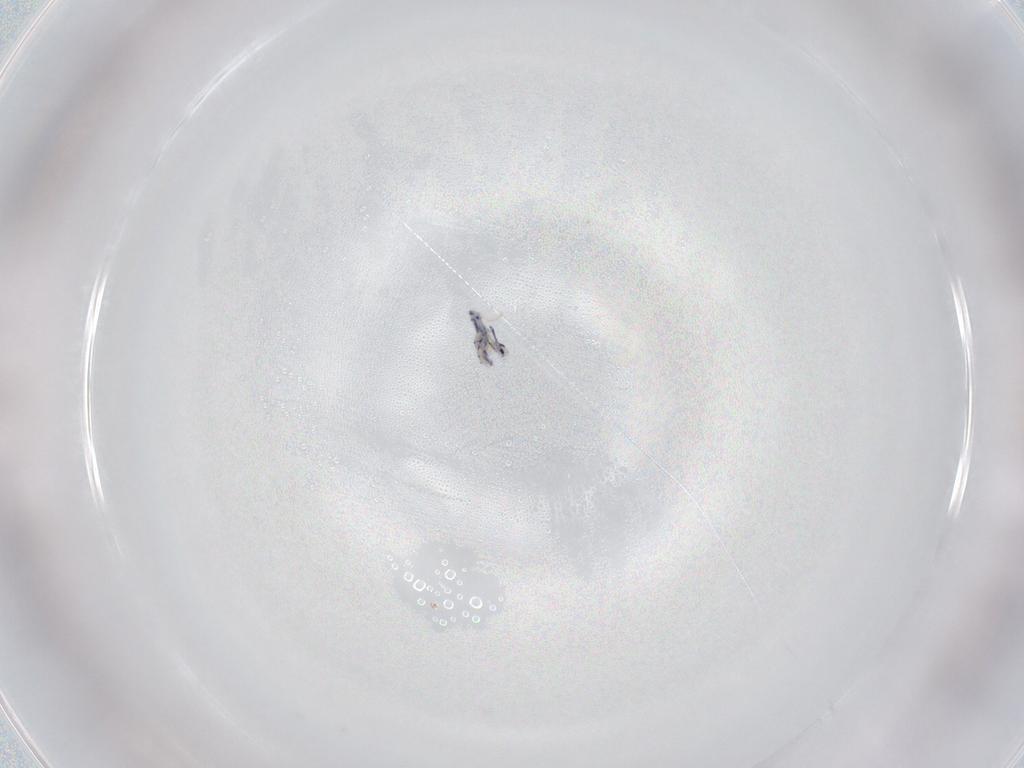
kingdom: Animalia
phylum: Arthropoda
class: Collembola
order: Entomobryomorpha
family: Entomobryidae
